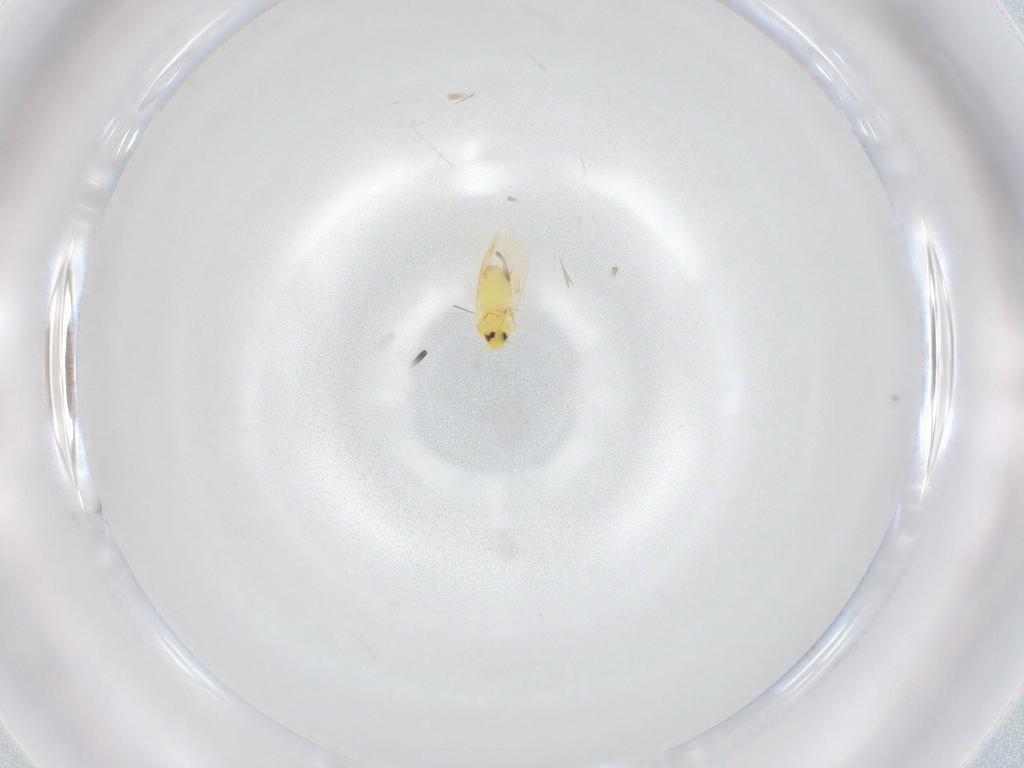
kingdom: Animalia
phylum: Arthropoda
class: Insecta
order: Hemiptera
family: Aleyrodidae
